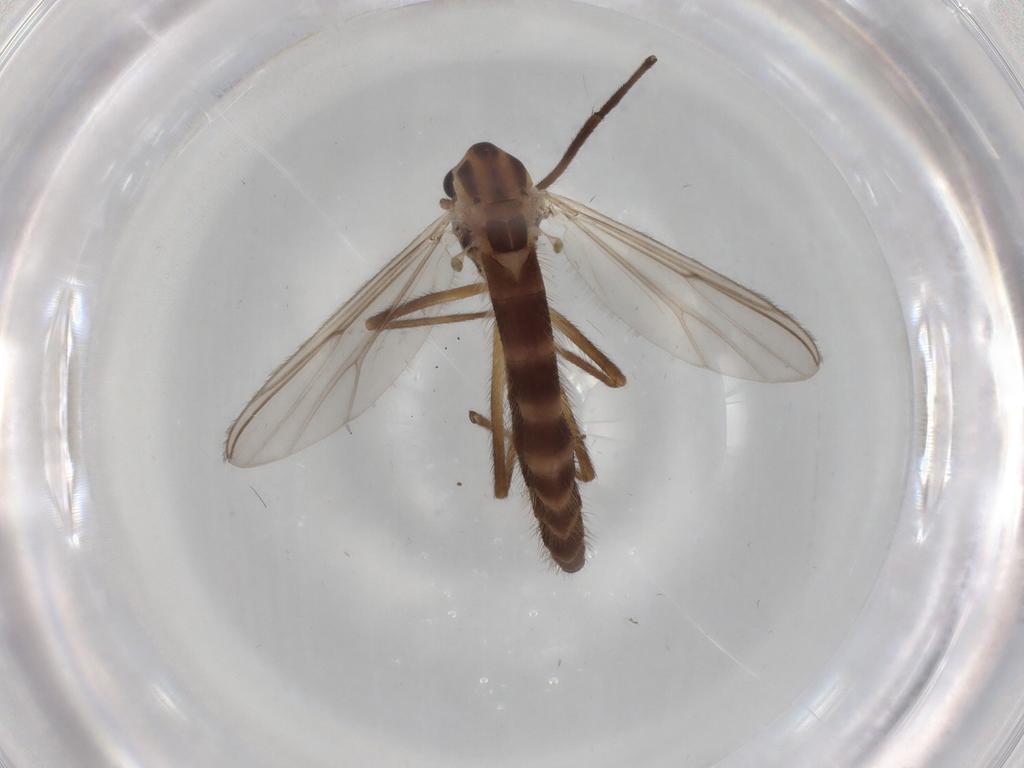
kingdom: Animalia
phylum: Arthropoda
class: Insecta
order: Diptera
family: Chironomidae
